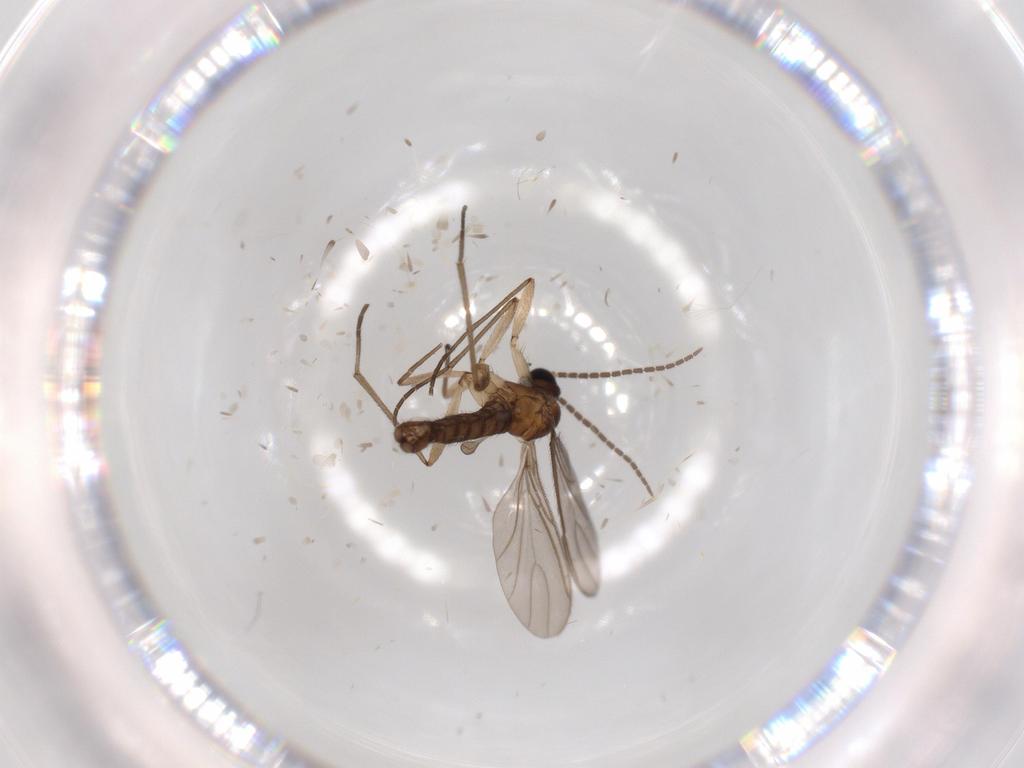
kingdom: Animalia
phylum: Arthropoda
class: Insecta
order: Diptera
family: Sciaridae
